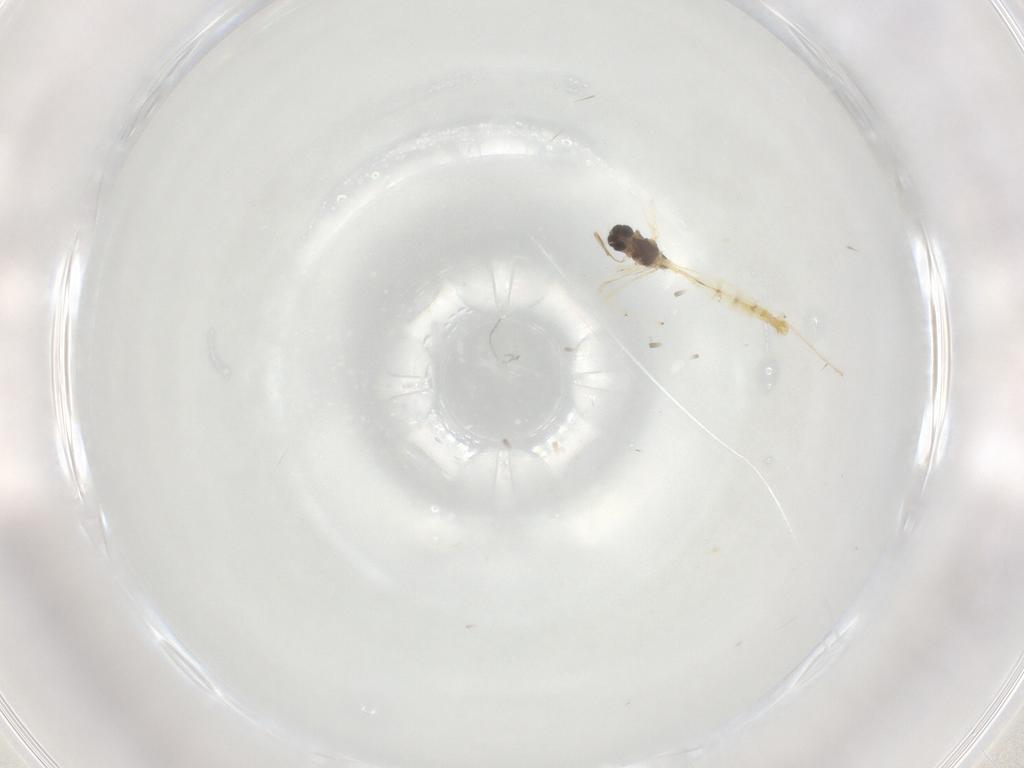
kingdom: Animalia
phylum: Arthropoda
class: Insecta
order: Diptera
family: Chironomidae
